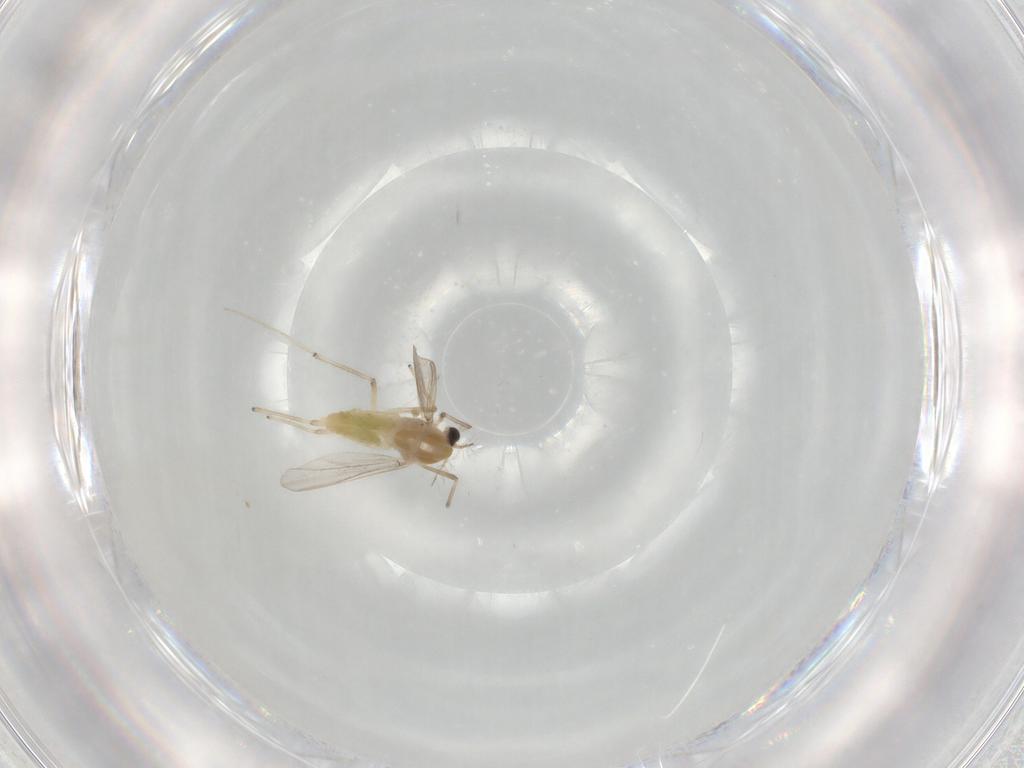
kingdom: Animalia
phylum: Arthropoda
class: Insecta
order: Diptera
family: Chironomidae
